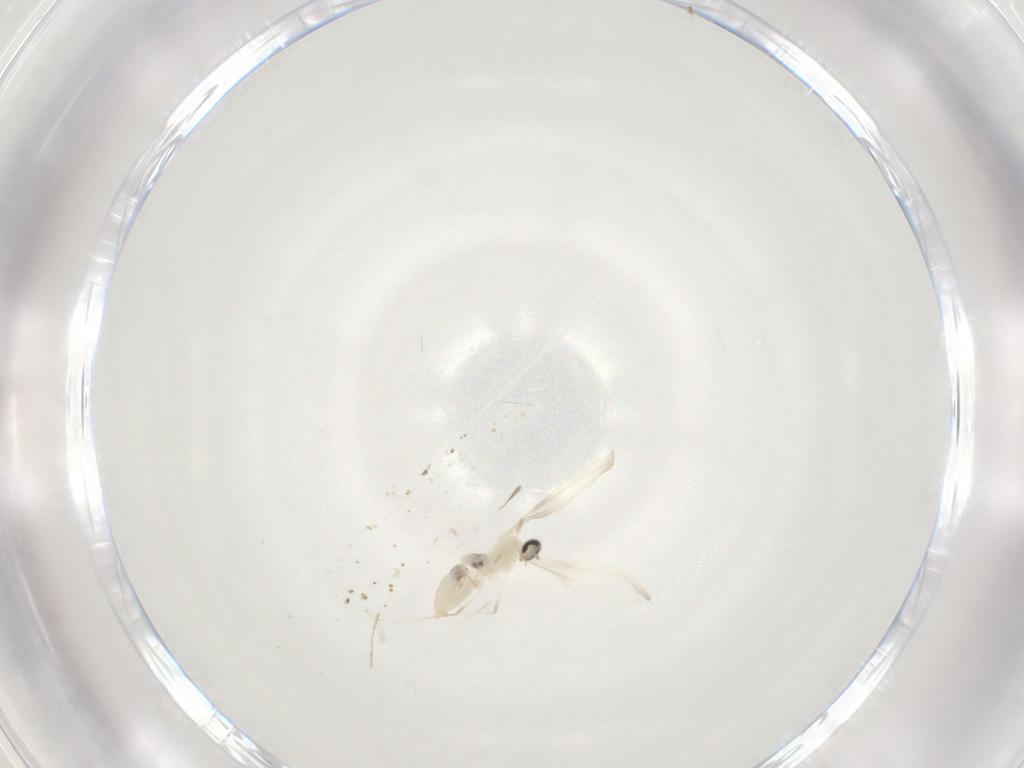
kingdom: Animalia
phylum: Arthropoda
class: Insecta
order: Diptera
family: Cecidomyiidae
